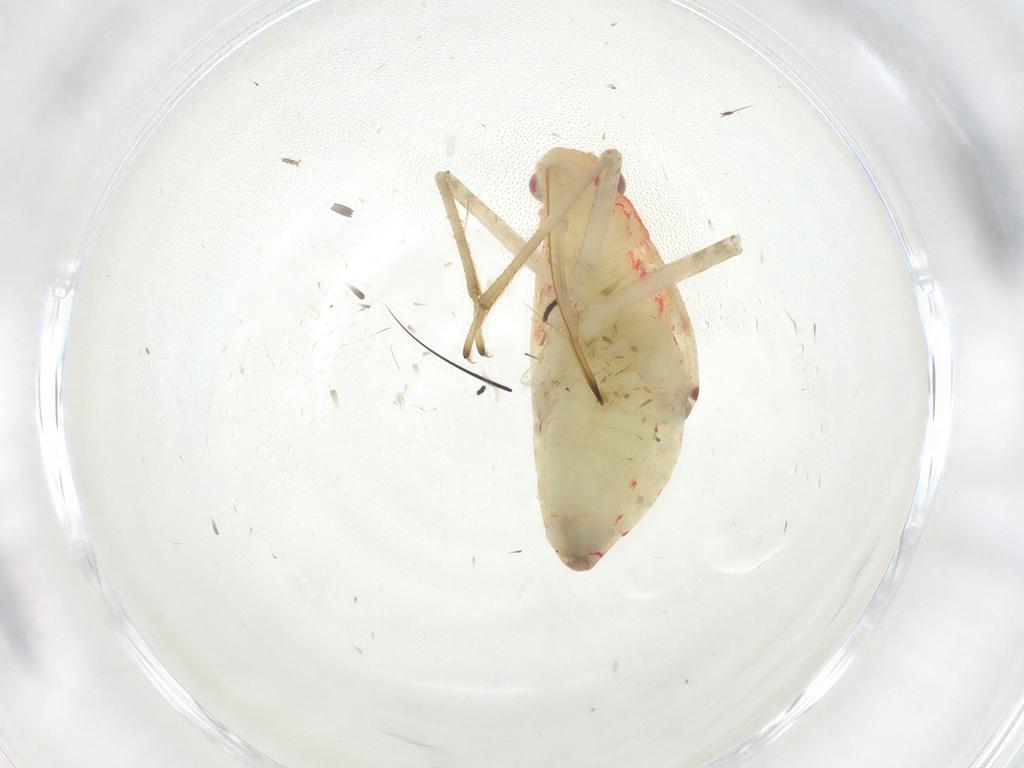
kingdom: Animalia
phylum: Arthropoda
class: Insecta
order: Hemiptera
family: Miridae
